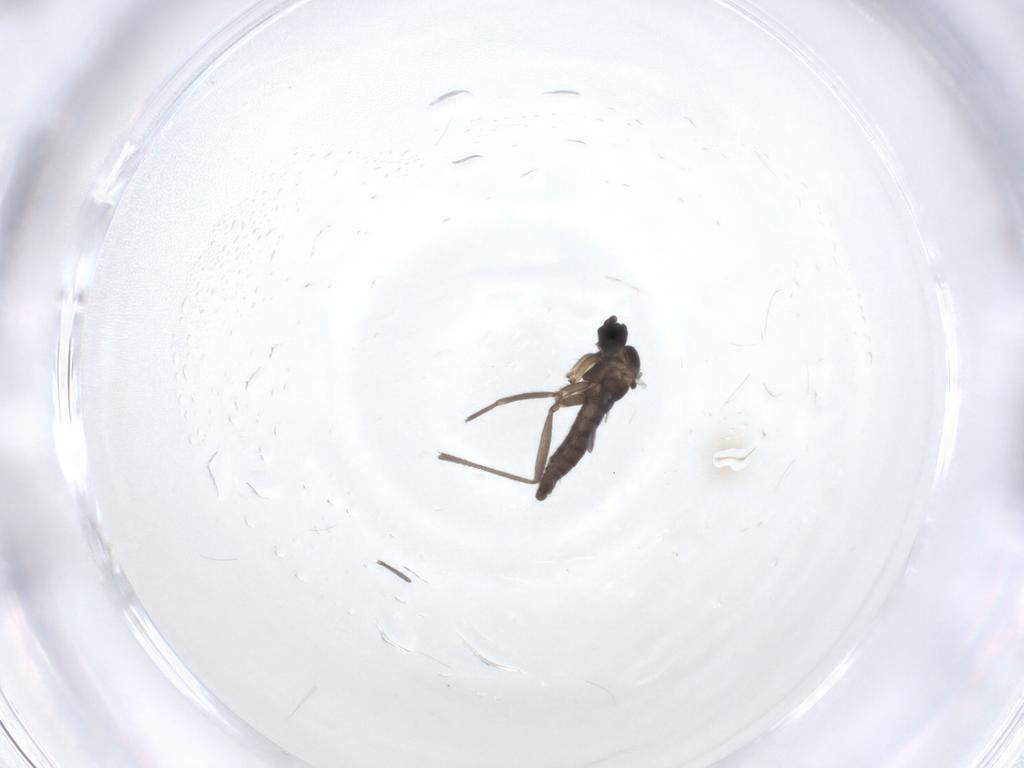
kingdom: Animalia
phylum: Arthropoda
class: Insecta
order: Diptera
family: Sciaridae
